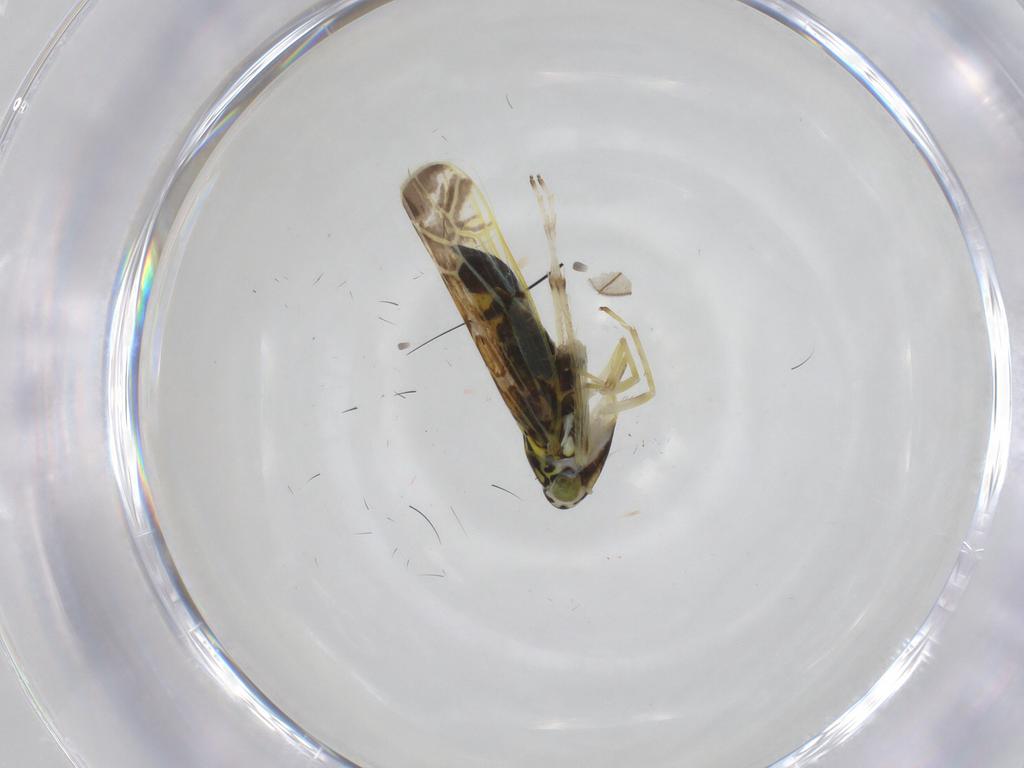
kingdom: Animalia
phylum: Arthropoda
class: Insecta
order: Hemiptera
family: Cicadellidae
